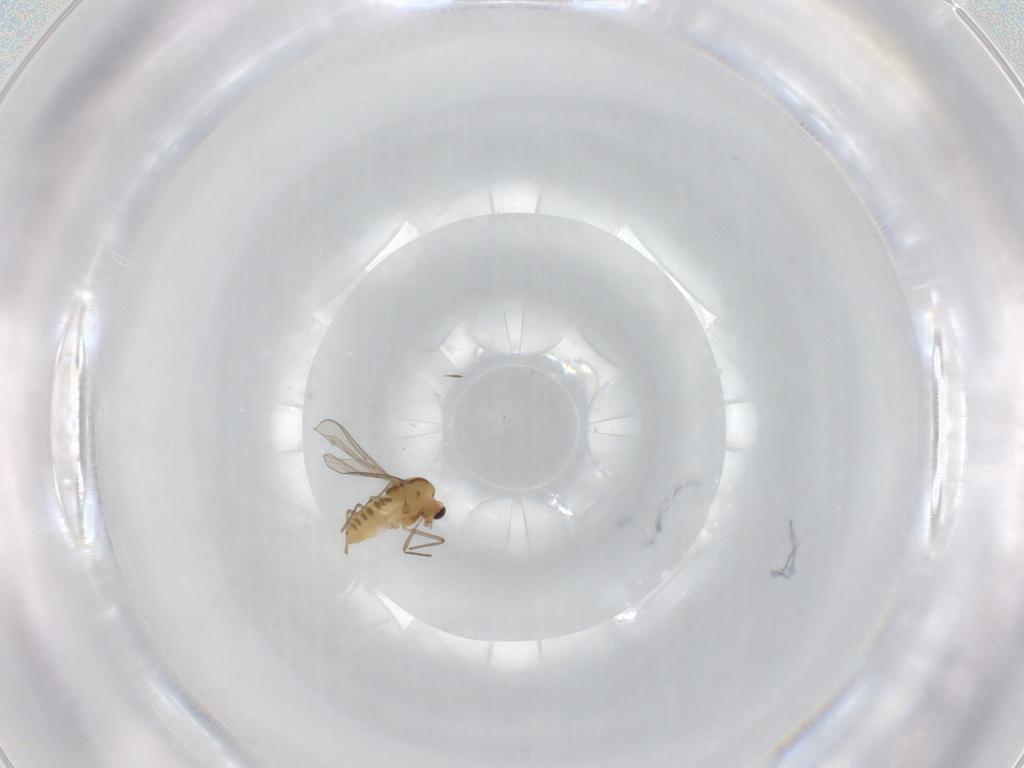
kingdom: Animalia
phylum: Arthropoda
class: Insecta
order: Diptera
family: Chironomidae
